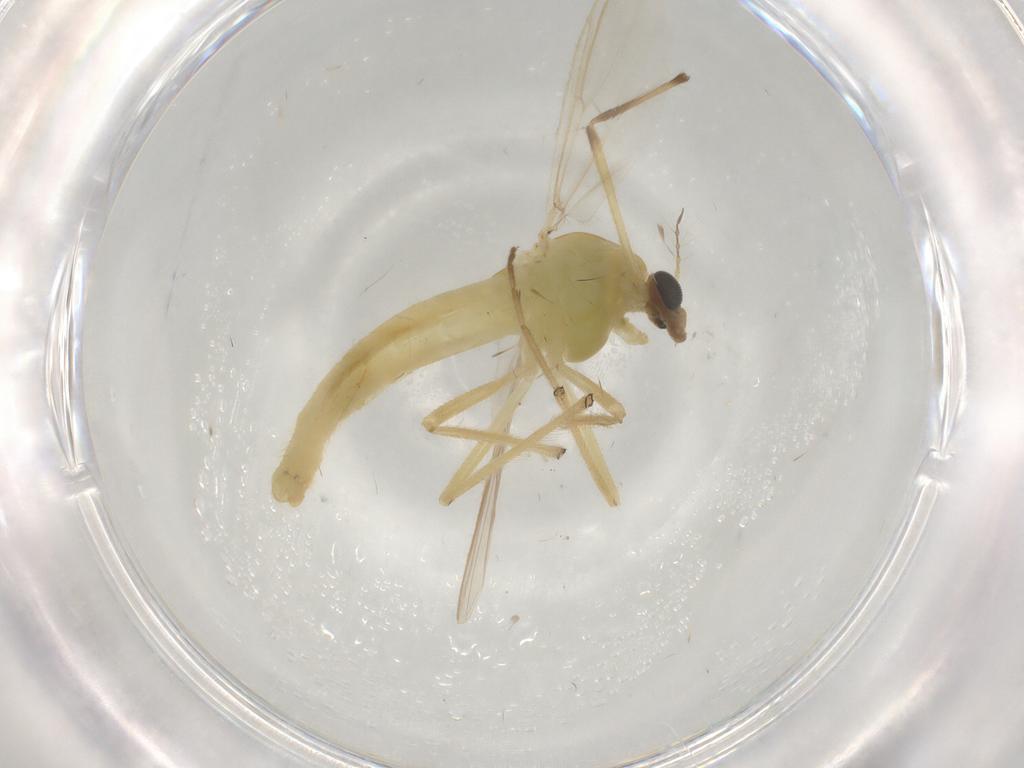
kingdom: Animalia
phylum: Arthropoda
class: Insecta
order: Diptera
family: Chironomidae
